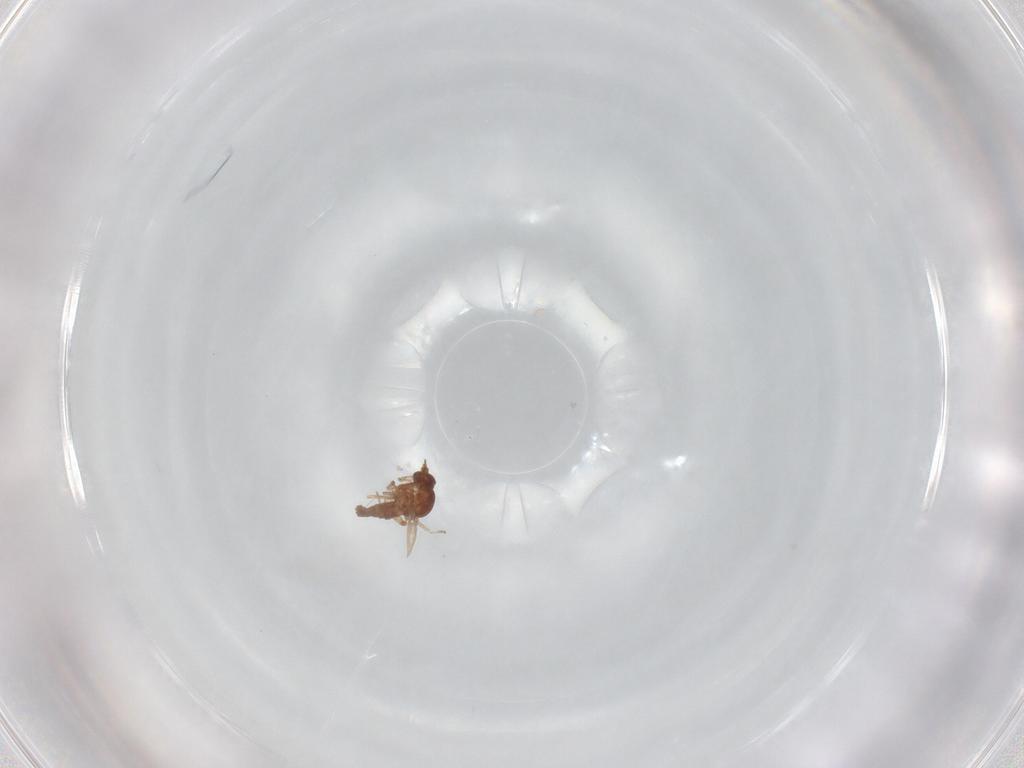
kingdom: Animalia
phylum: Arthropoda
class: Insecta
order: Diptera
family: Ceratopogonidae
